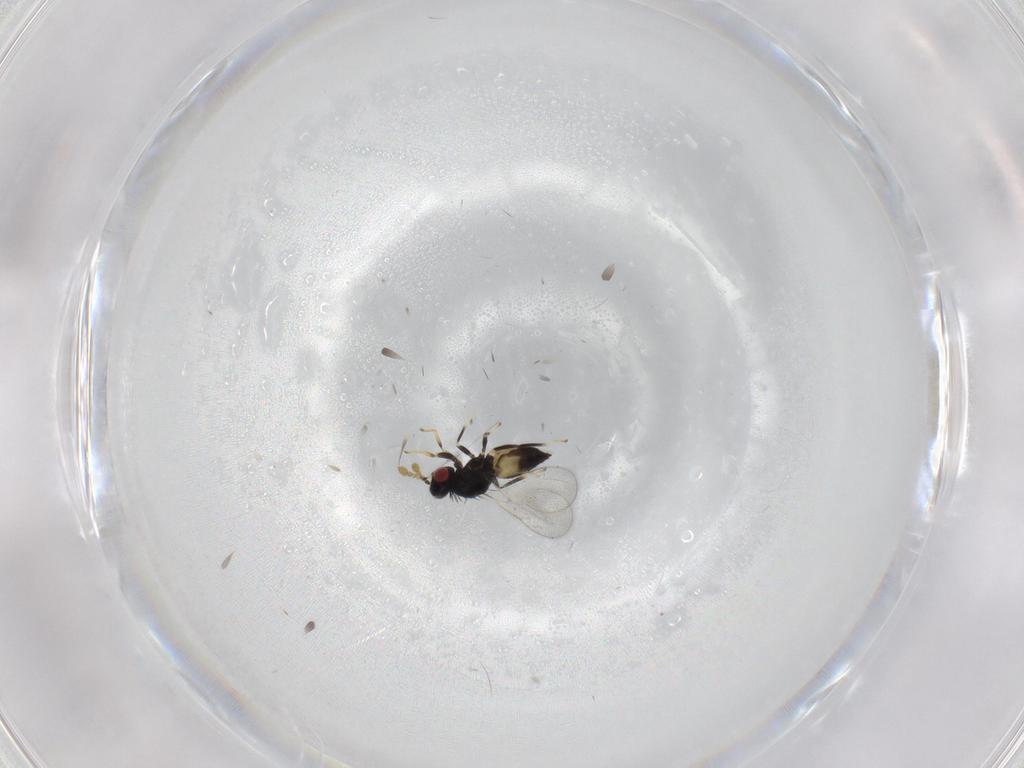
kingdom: Animalia
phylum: Arthropoda
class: Insecta
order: Hymenoptera
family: Eulophidae
